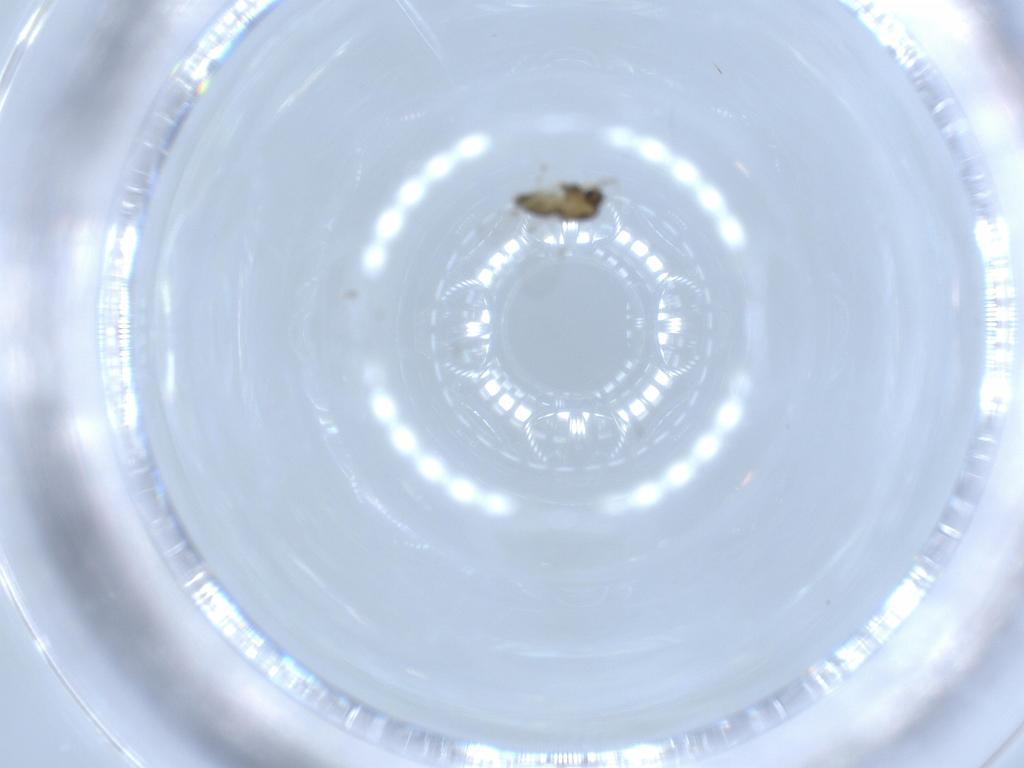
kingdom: Animalia
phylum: Arthropoda
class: Insecta
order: Diptera
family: Chironomidae
